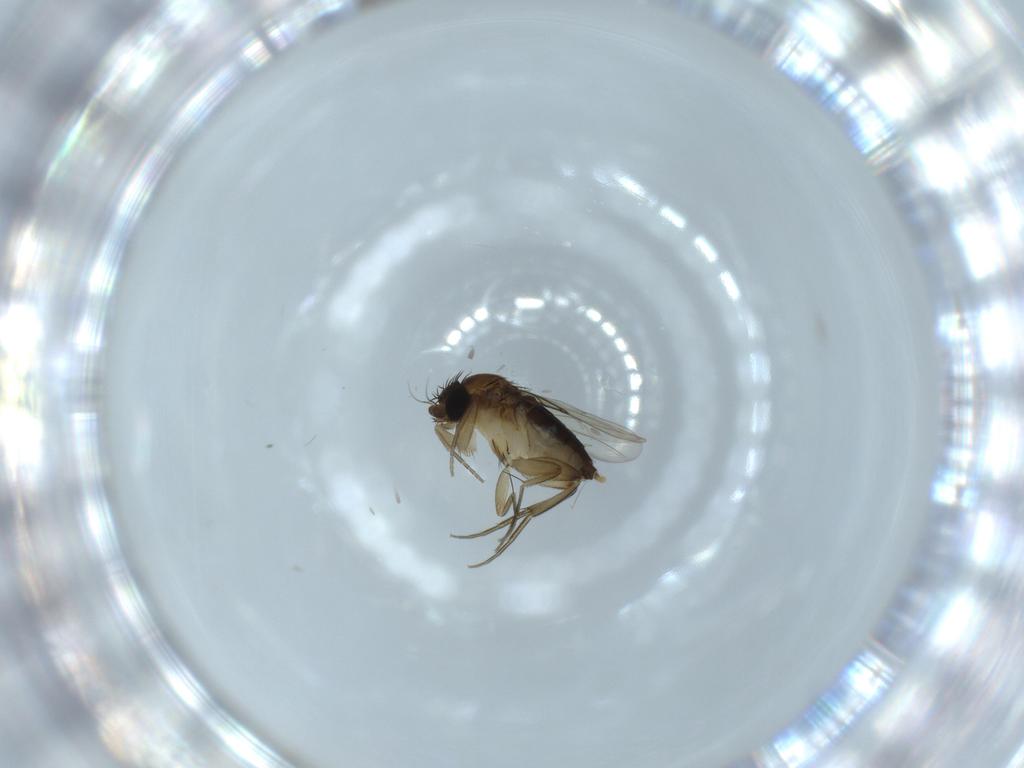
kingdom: Animalia
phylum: Arthropoda
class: Insecta
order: Diptera
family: Phoridae
